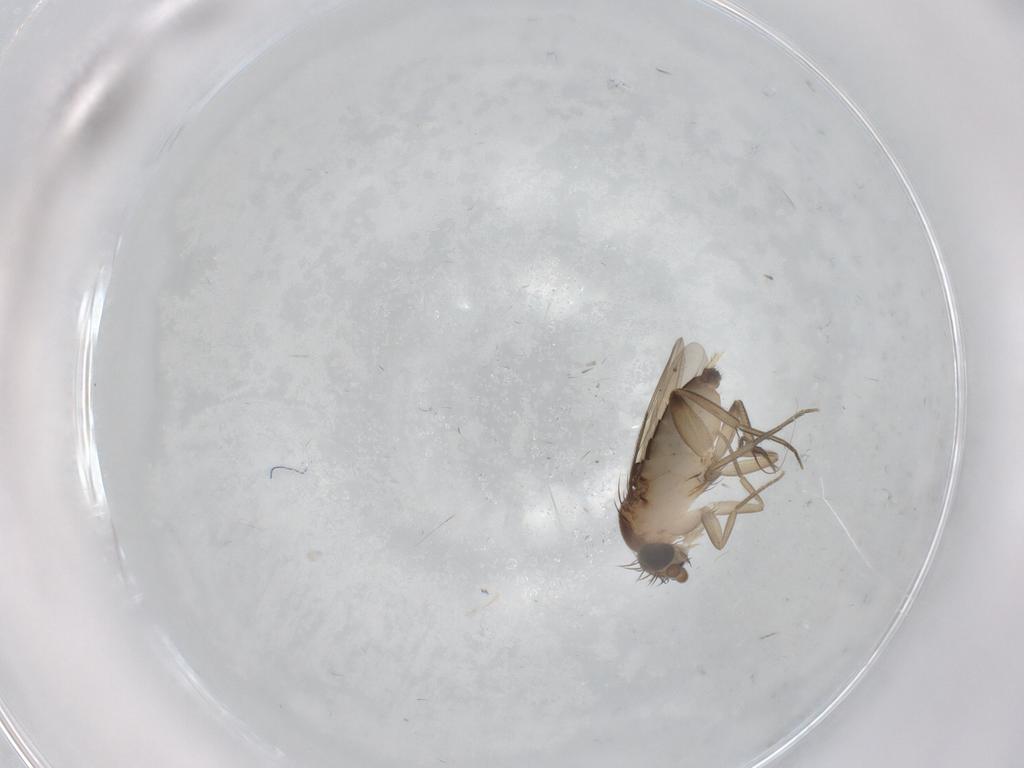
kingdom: Animalia
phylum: Arthropoda
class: Insecta
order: Diptera
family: Phoridae
